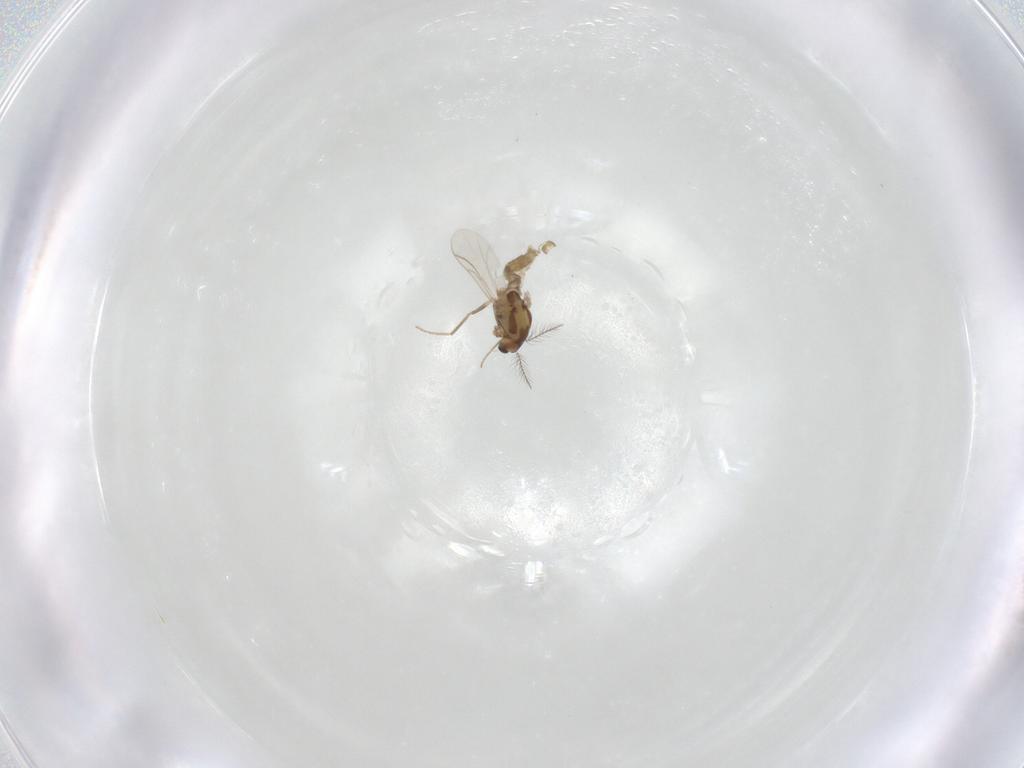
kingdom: Animalia
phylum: Arthropoda
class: Insecta
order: Diptera
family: Chironomidae
